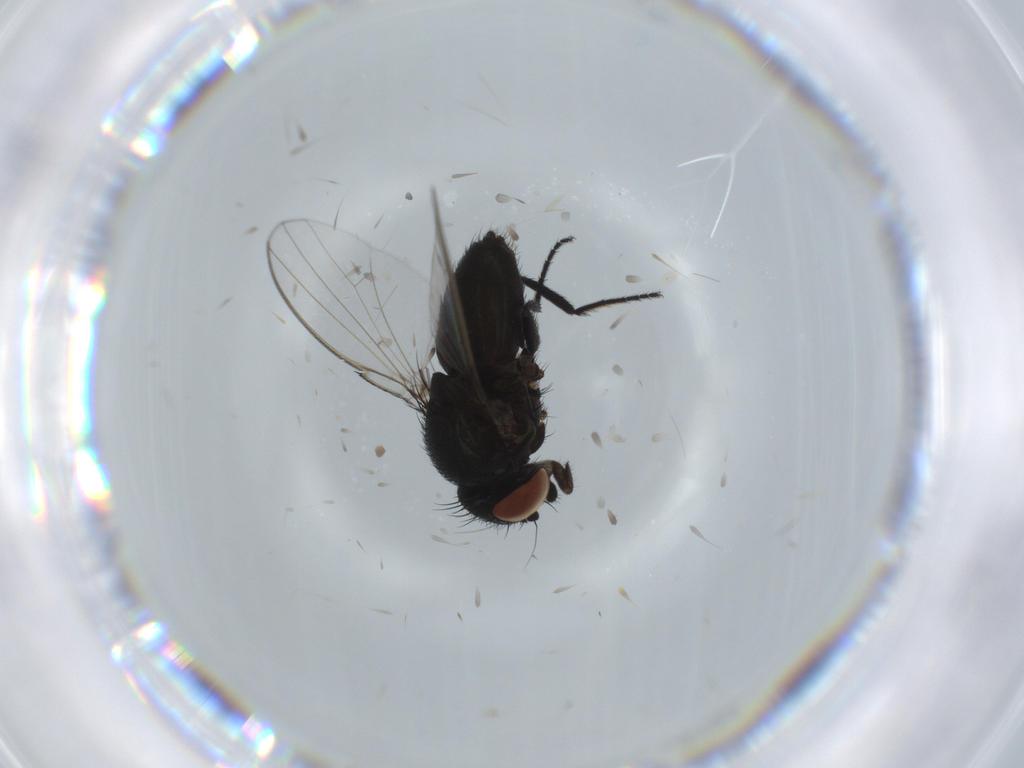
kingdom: Animalia
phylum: Arthropoda
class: Insecta
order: Diptera
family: Milichiidae
